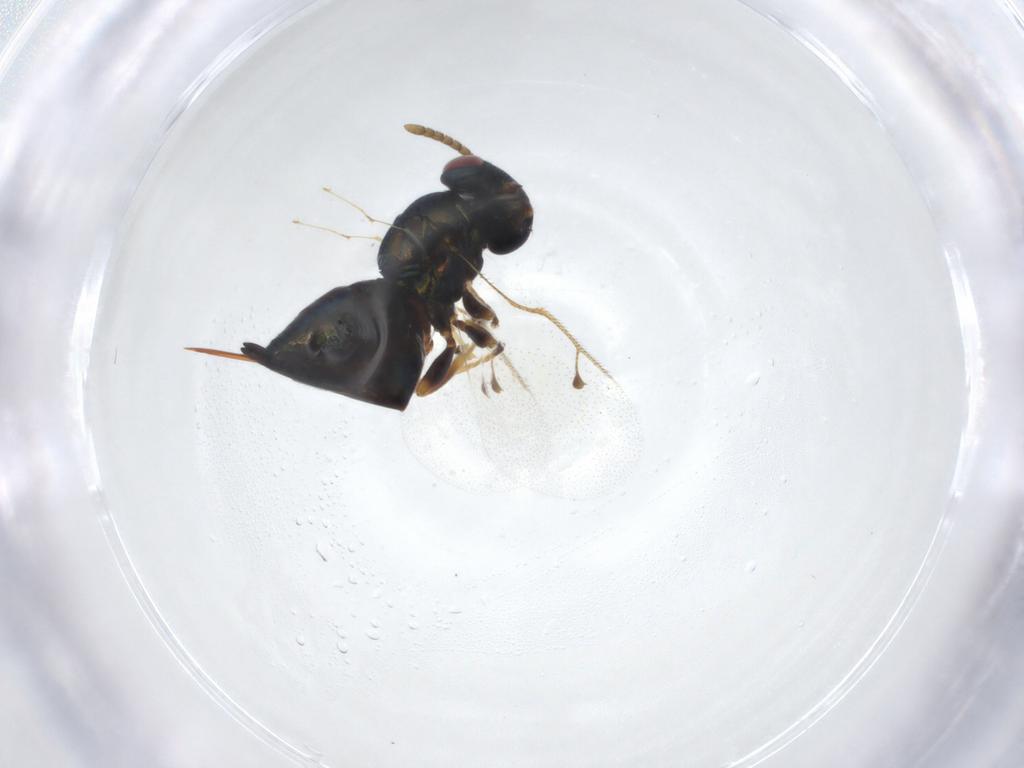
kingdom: Animalia
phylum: Arthropoda
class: Insecta
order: Hymenoptera
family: Pteromalidae
